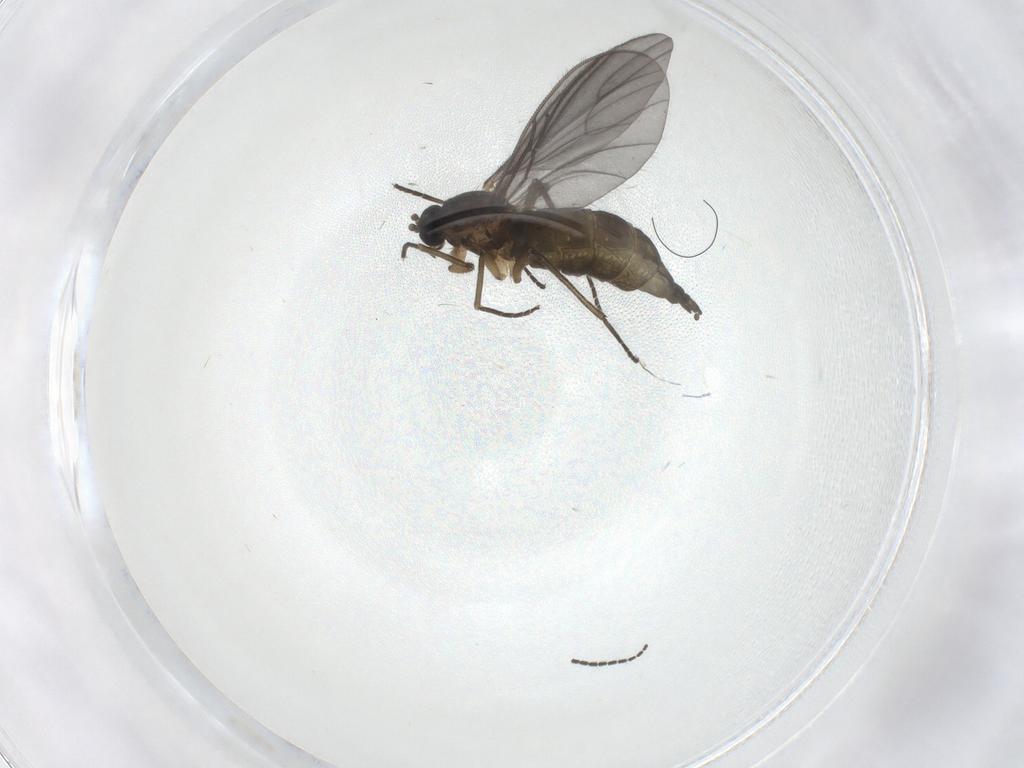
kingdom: Animalia
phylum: Arthropoda
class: Insecta
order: Diptera
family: Sciaridae
